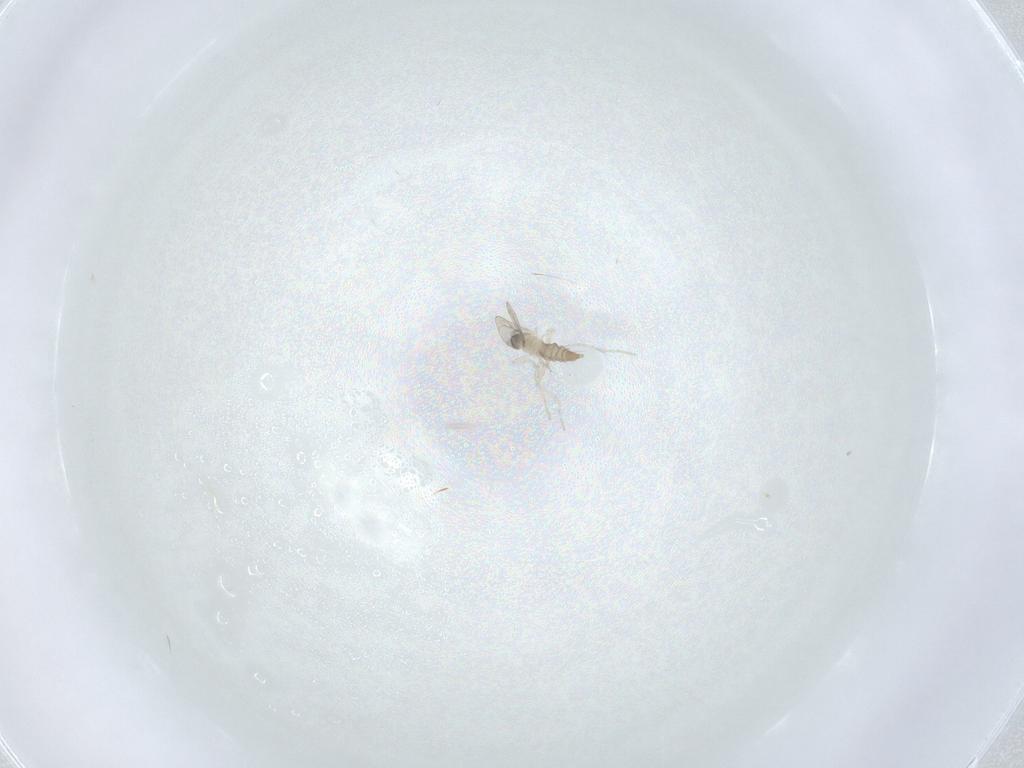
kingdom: Animalia
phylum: Arthropoda
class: Insecta
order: Diptera
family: Cecidomyiidae
